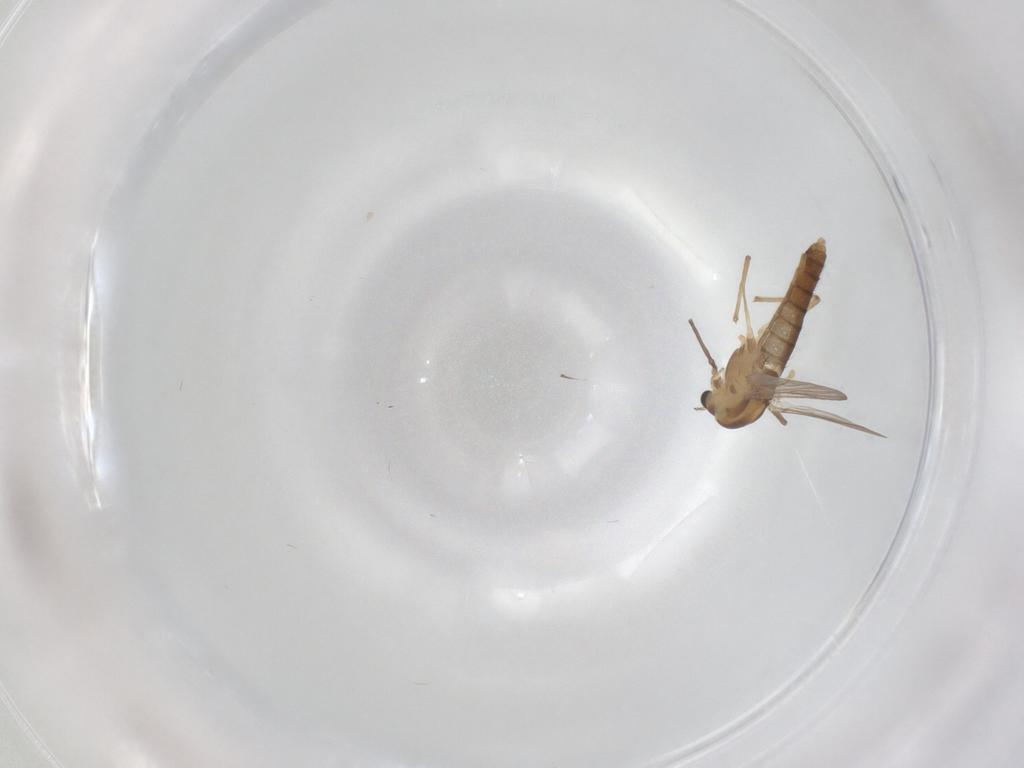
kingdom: Animalia
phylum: Arthropoda
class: Insecta
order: Diptera
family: Chironomidae
